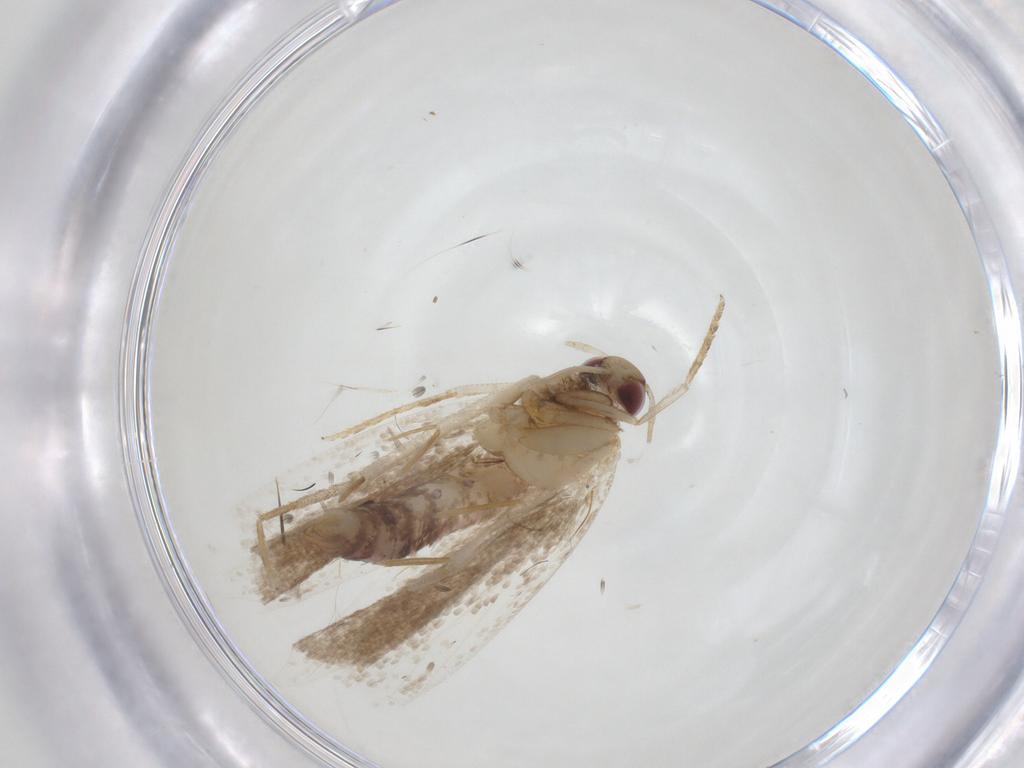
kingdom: Animalia
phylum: Arthropoda
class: Insecta
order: Lepidoptera
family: Gelechiidae
